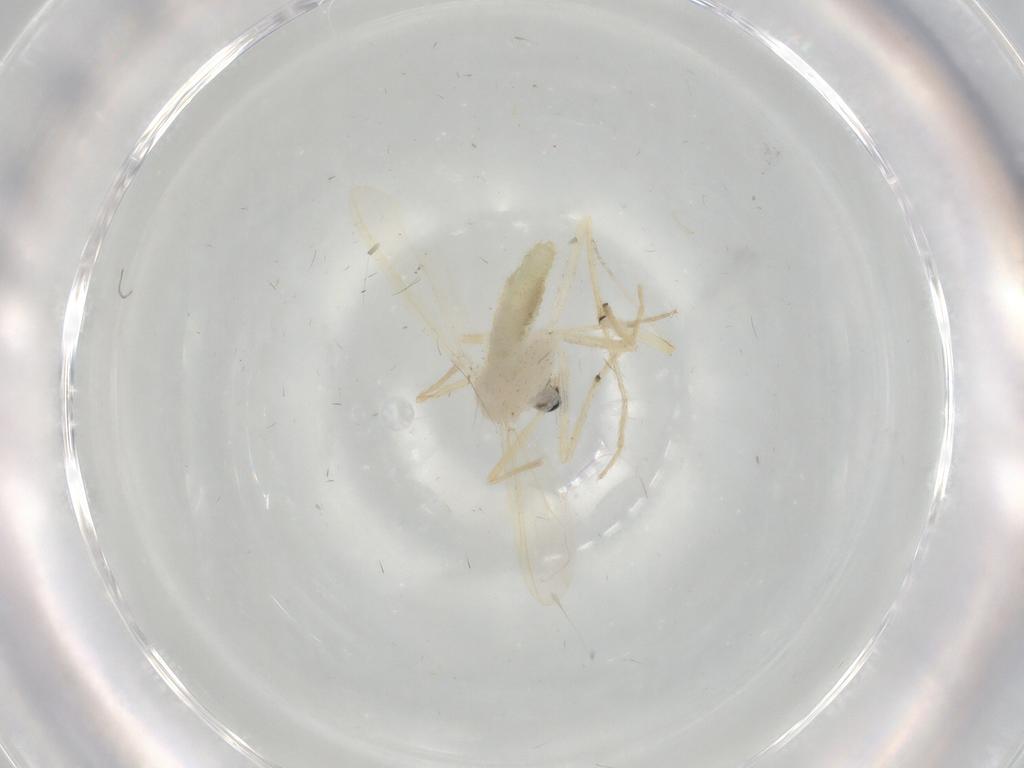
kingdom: Animalia
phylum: Arthropoda
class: Insecta
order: Diptera
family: Chironomidae
